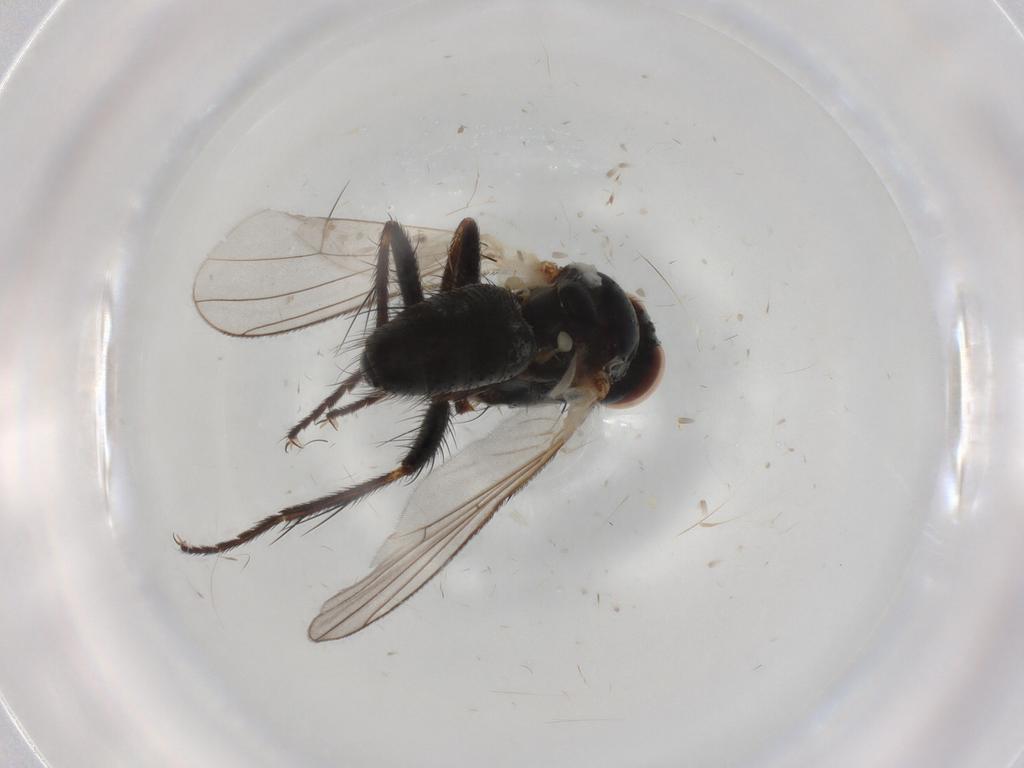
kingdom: Animalia
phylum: Arthropoda
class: Insecta
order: Diptera
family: Muscidae
